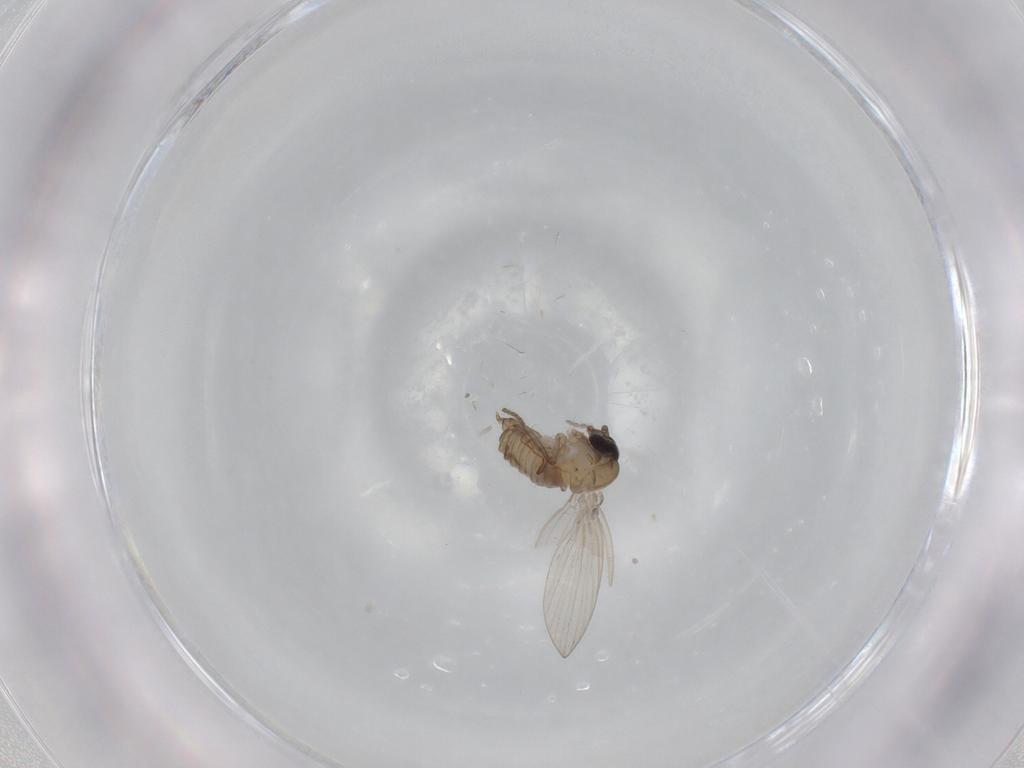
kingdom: Animalia
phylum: Arthropoda
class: Insecta
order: Diptera
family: Psychodidae
